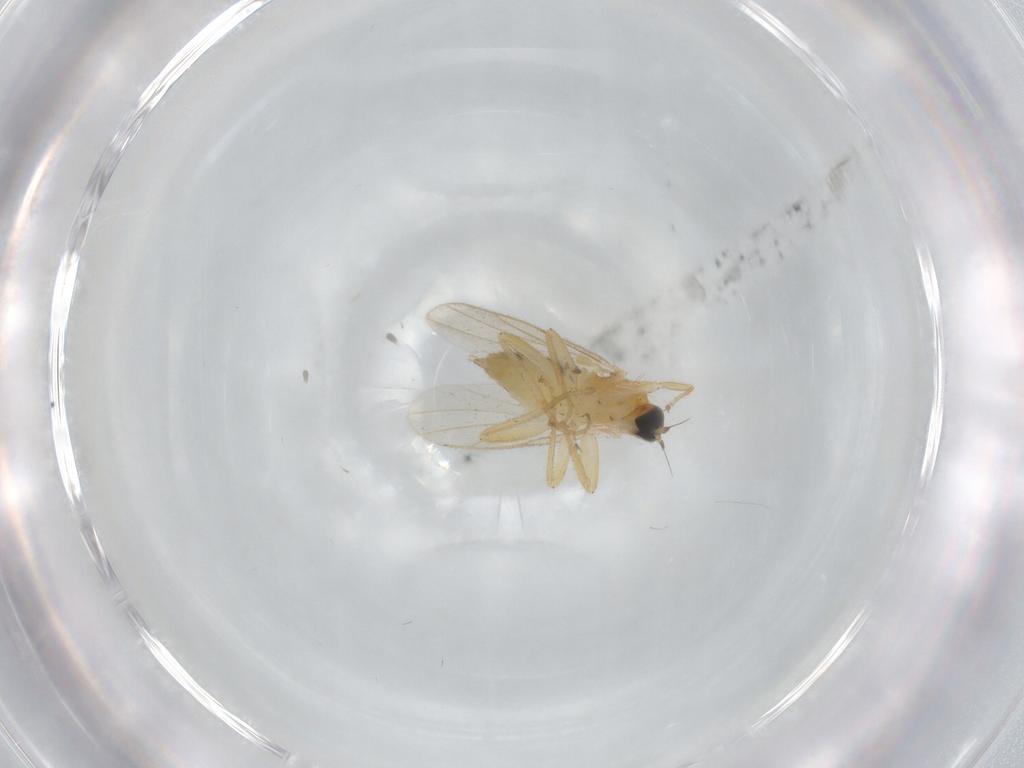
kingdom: Animalia
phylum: Arthropoda
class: Insecta
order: Diptera
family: Hybotidae
